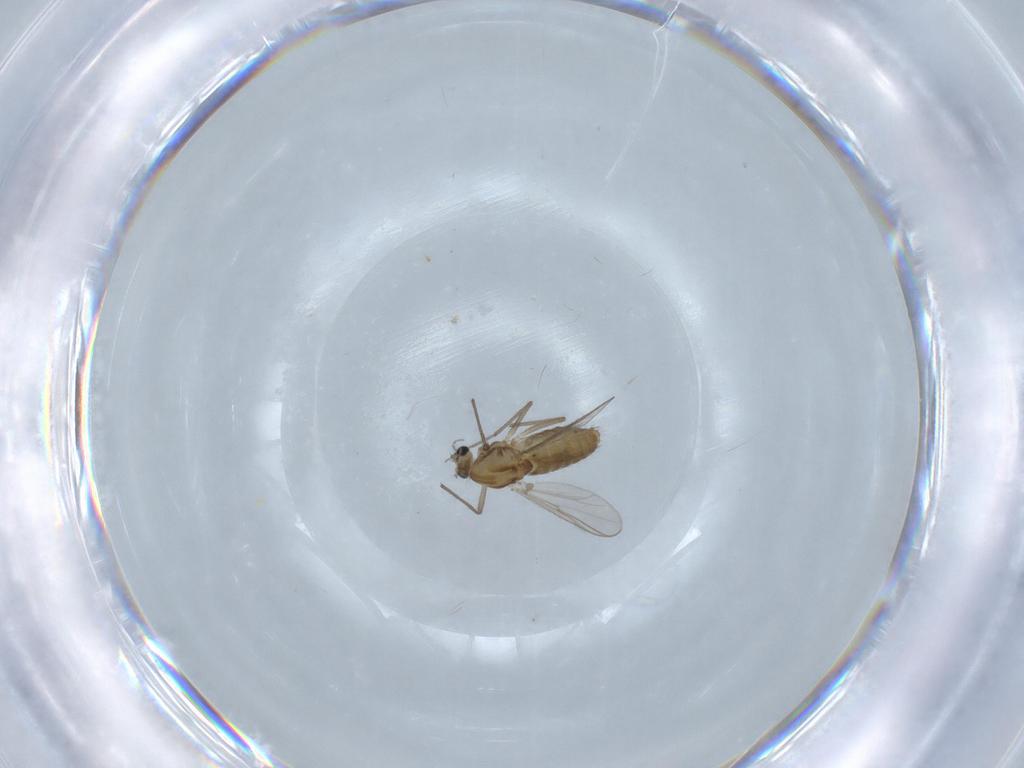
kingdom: Animalia
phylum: Arthropoda
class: Insecta
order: Diptera
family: Chironomidae
